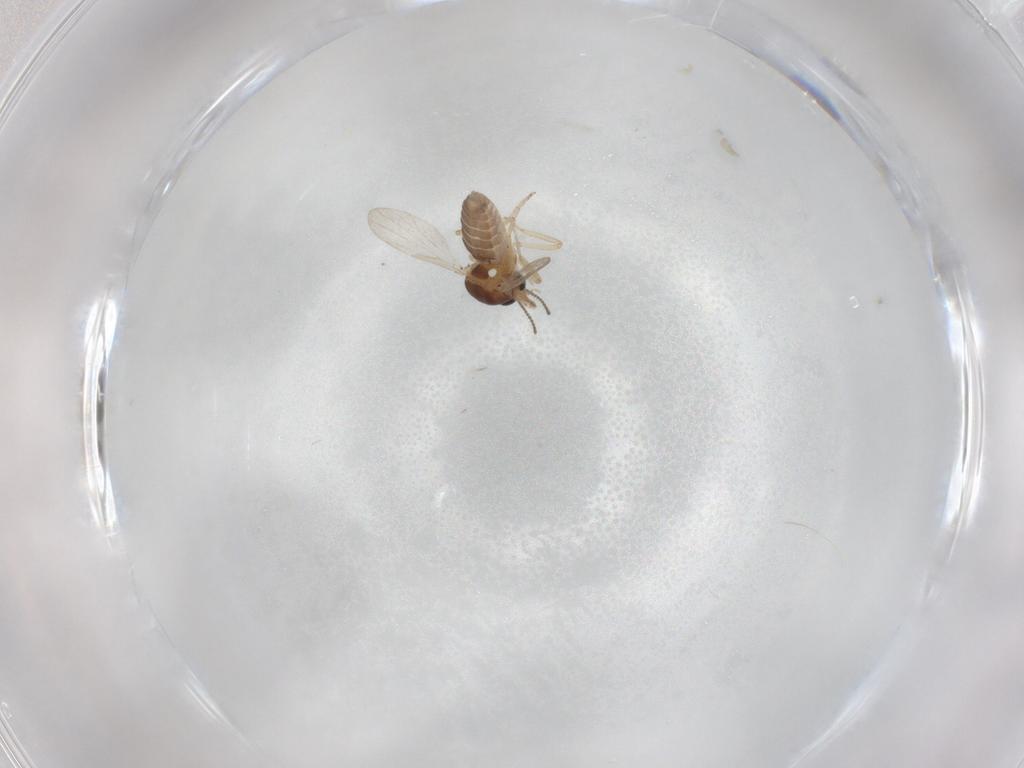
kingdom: Animalia
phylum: Arthropoda
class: Insecta
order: Diptera
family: Ceratopogonidae
